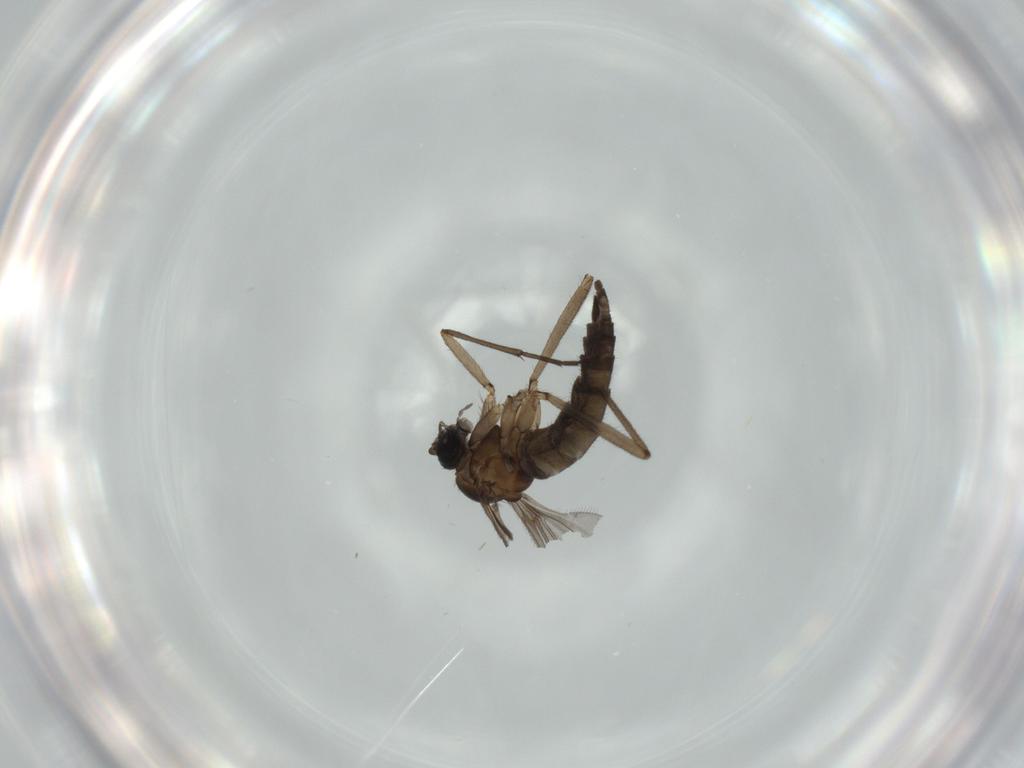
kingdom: Animalia
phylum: Arthropoda
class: Insecta
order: Diptera
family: Sciaridae
